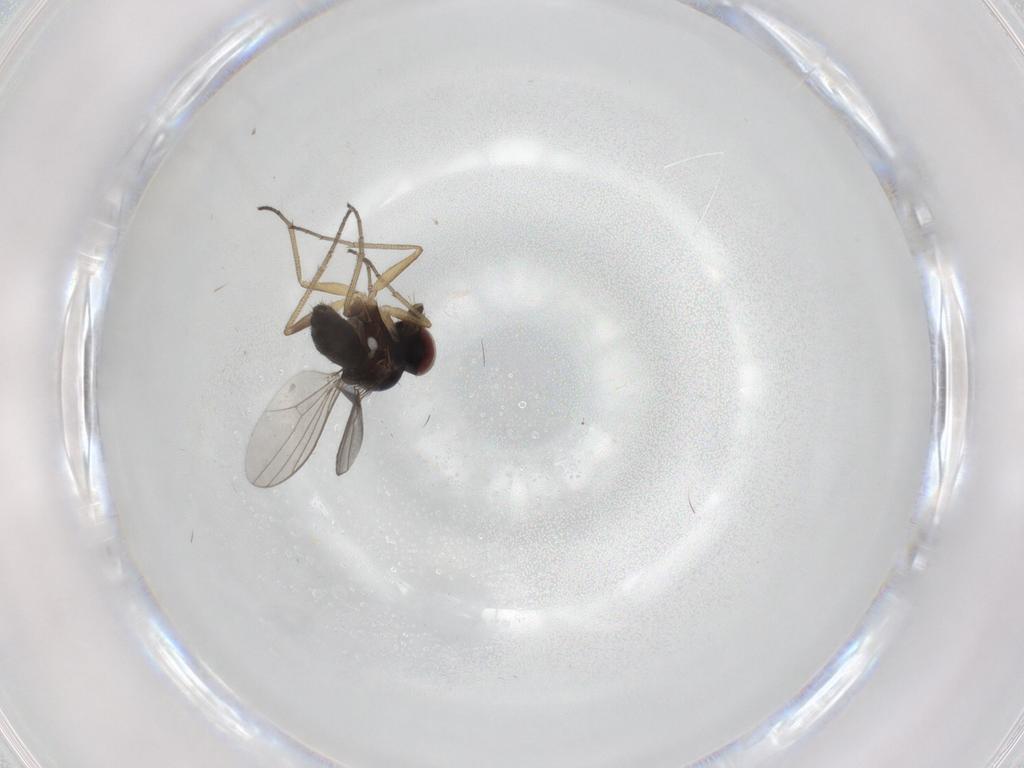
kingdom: Animalia
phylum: Arthropoda
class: Insecta
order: Diptera
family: Dolichopodidae
